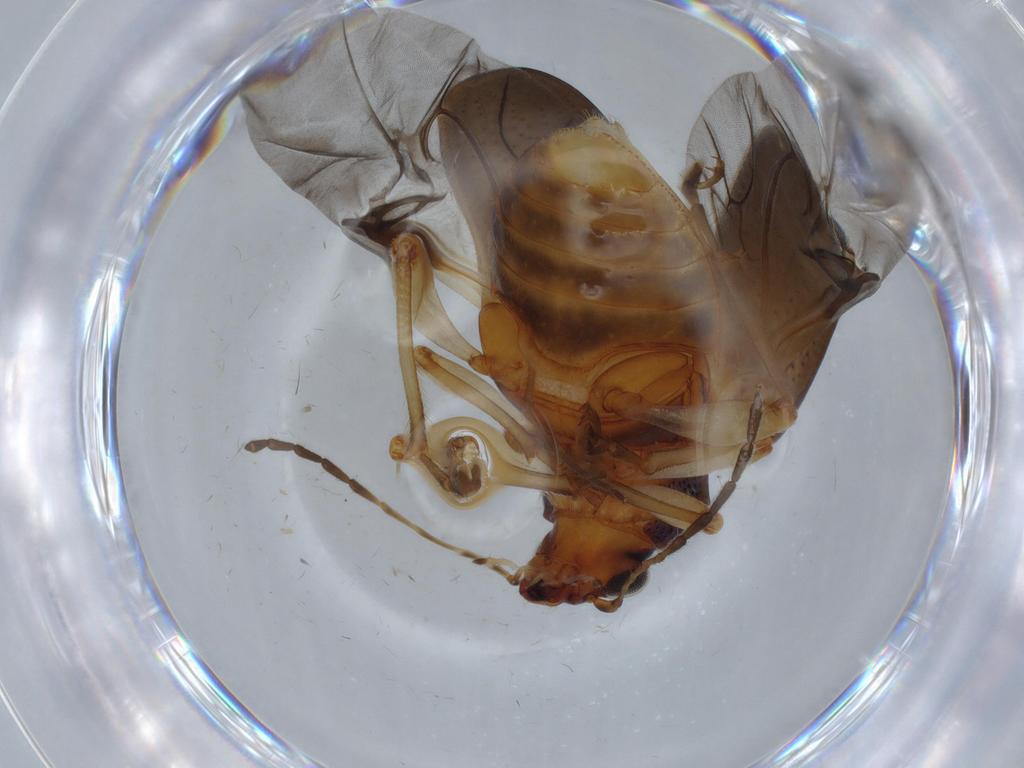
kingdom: Animalia
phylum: Arthropoda
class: Insecta
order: Coleoptera
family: Chrysomelidae
